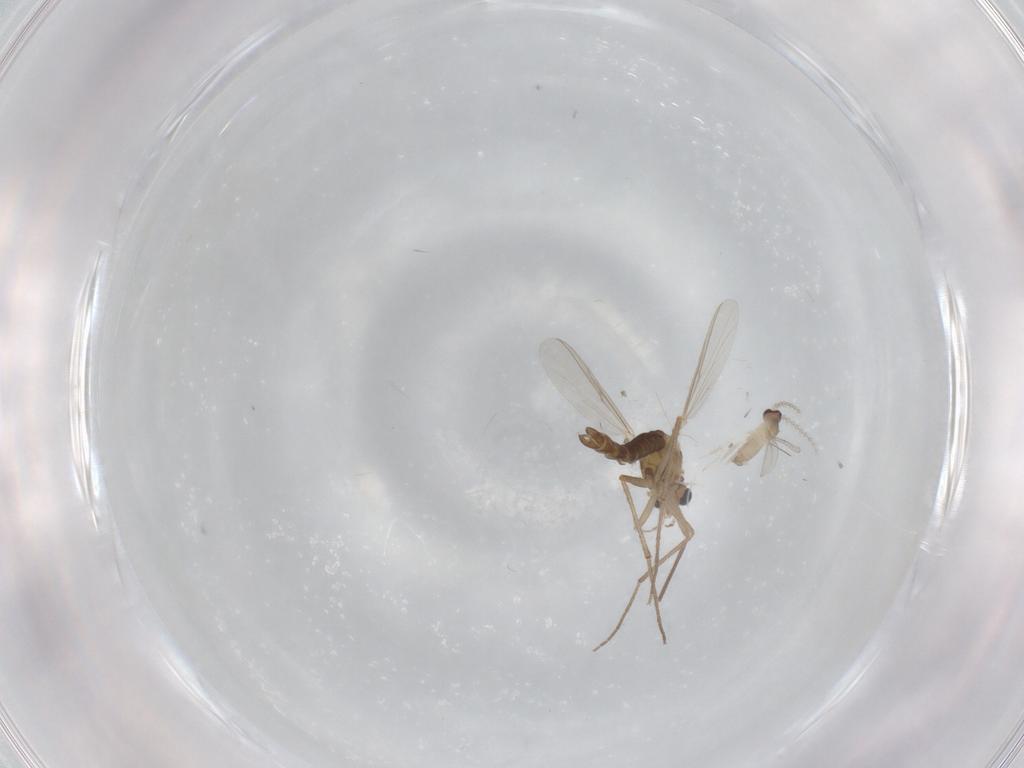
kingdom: Animalia
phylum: Arthropoda
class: Insecta
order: Diptera
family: Chironomidae
